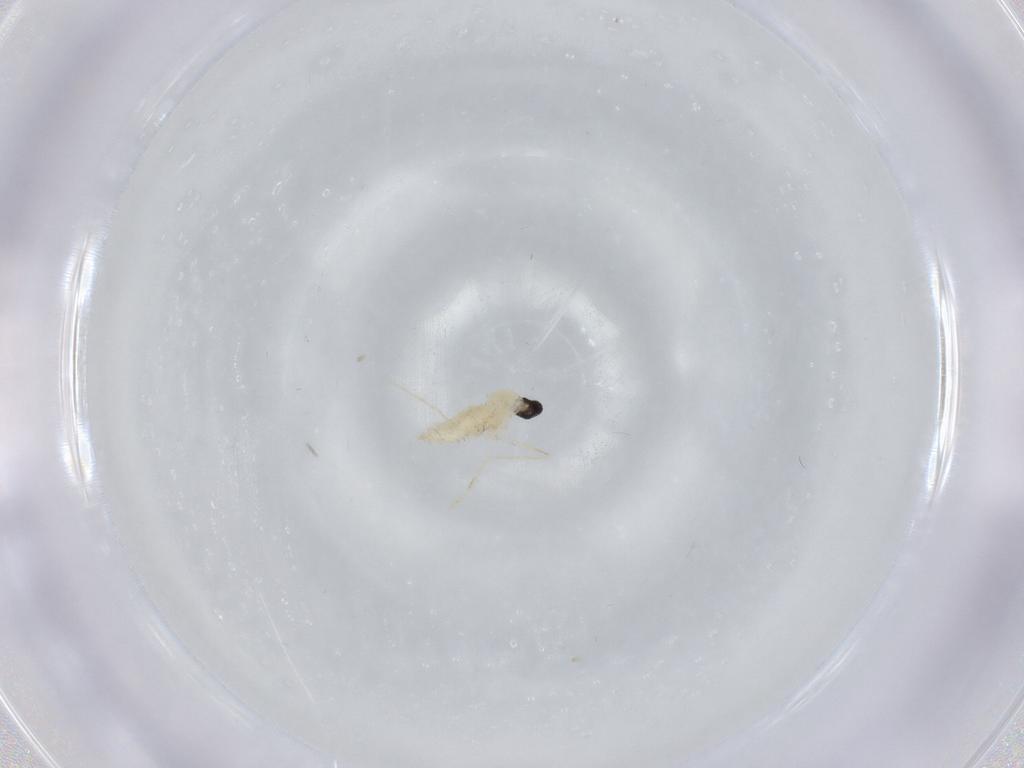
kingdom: Animalia
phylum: Arthropoda
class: Insecta
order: Diptera
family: Cecidomyiidae
